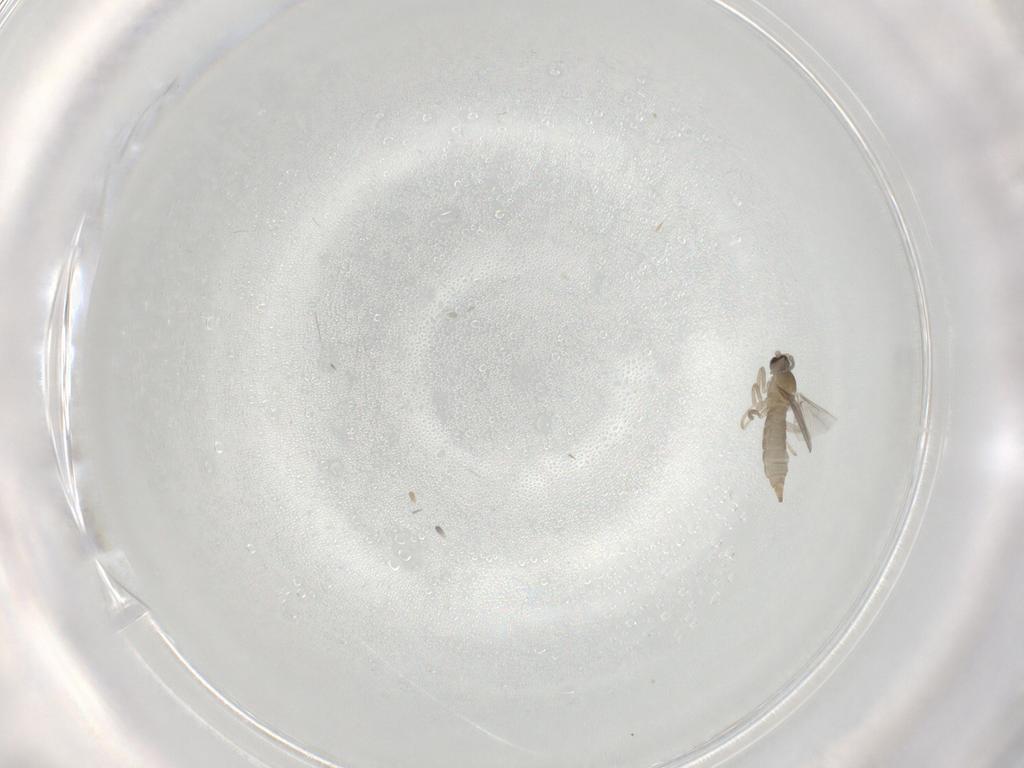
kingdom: Animalia
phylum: Arthropoda
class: Insecta
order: Diptera
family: Cecidomyiidae
